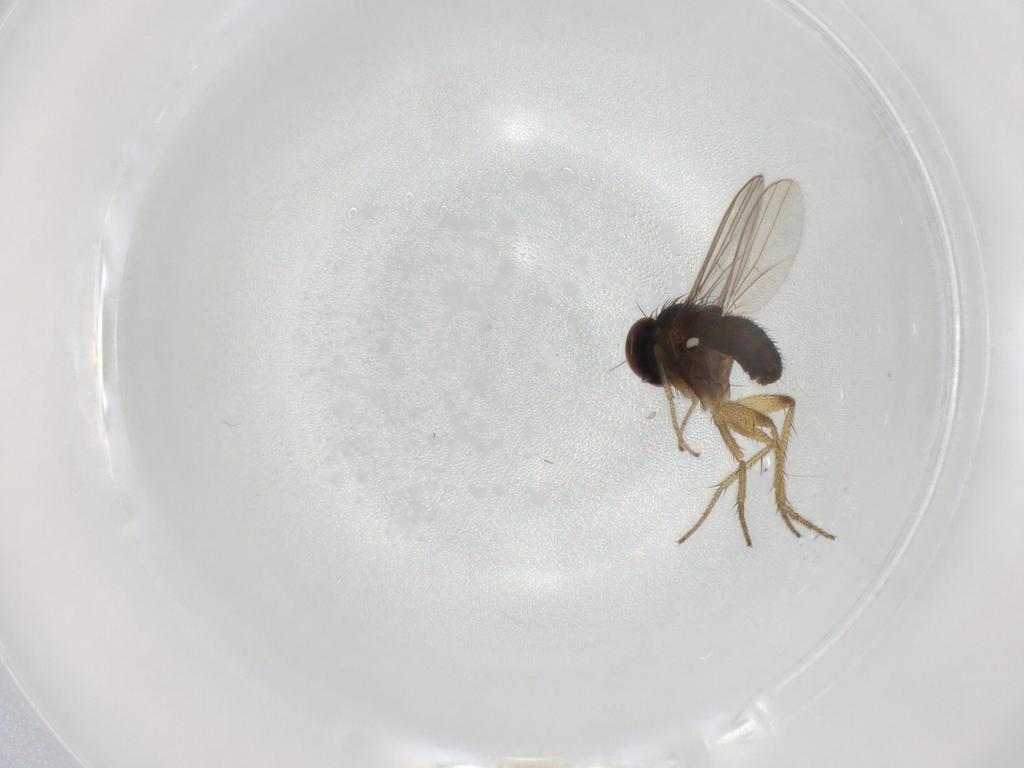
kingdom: Animalia
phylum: Arthropoda
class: Insecta
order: Diptera
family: Dolichopodidae
